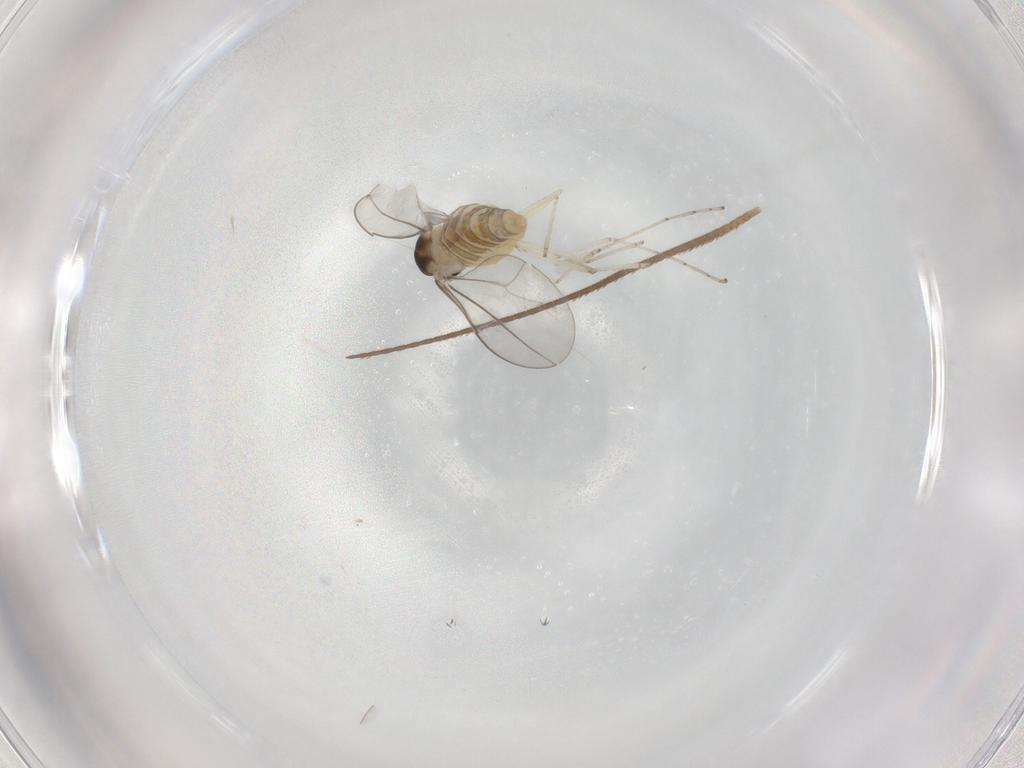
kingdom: Animalia
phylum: Arthropoda
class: Insecta
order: Diptera
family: Cecidomyiidae
